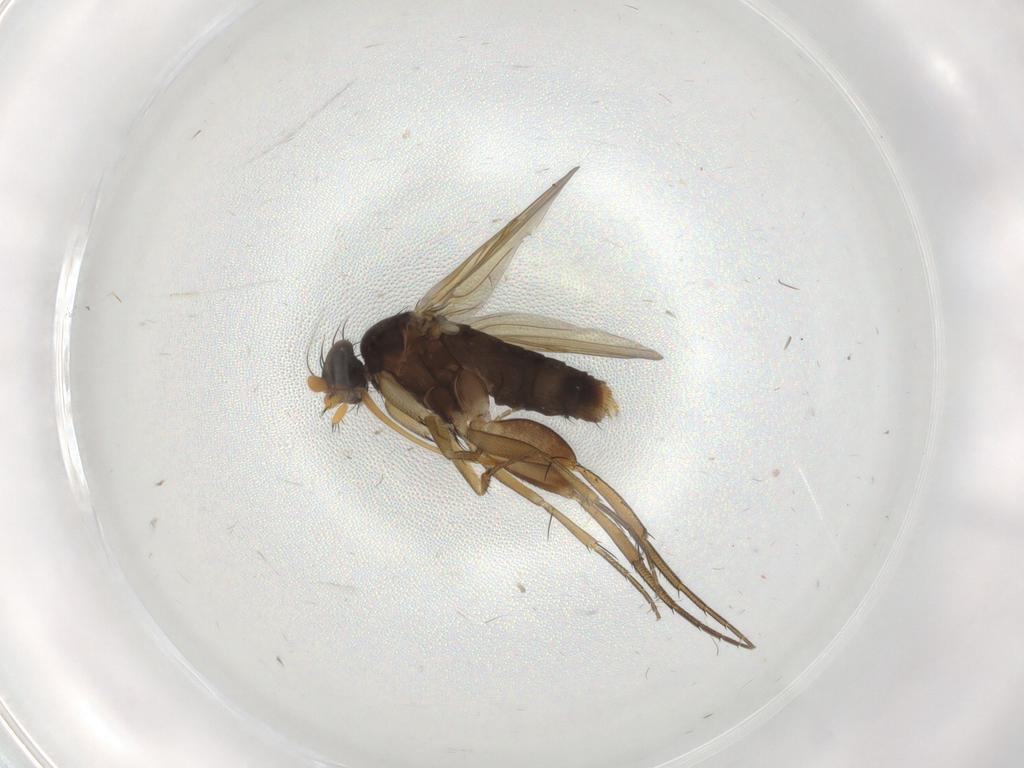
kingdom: Animalia
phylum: Arthropoda
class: Insecta
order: Diptera
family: Phoridae
